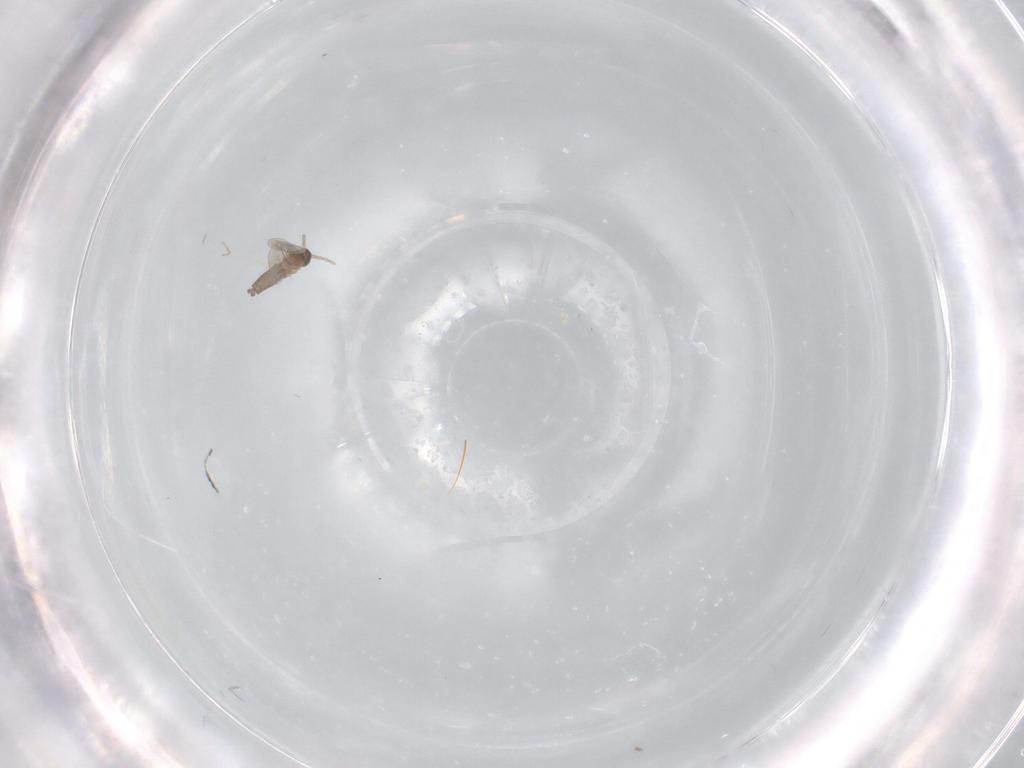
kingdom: Animalia
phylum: Arthropoda
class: Insecta
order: Diptera
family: Cecidomyiidae
